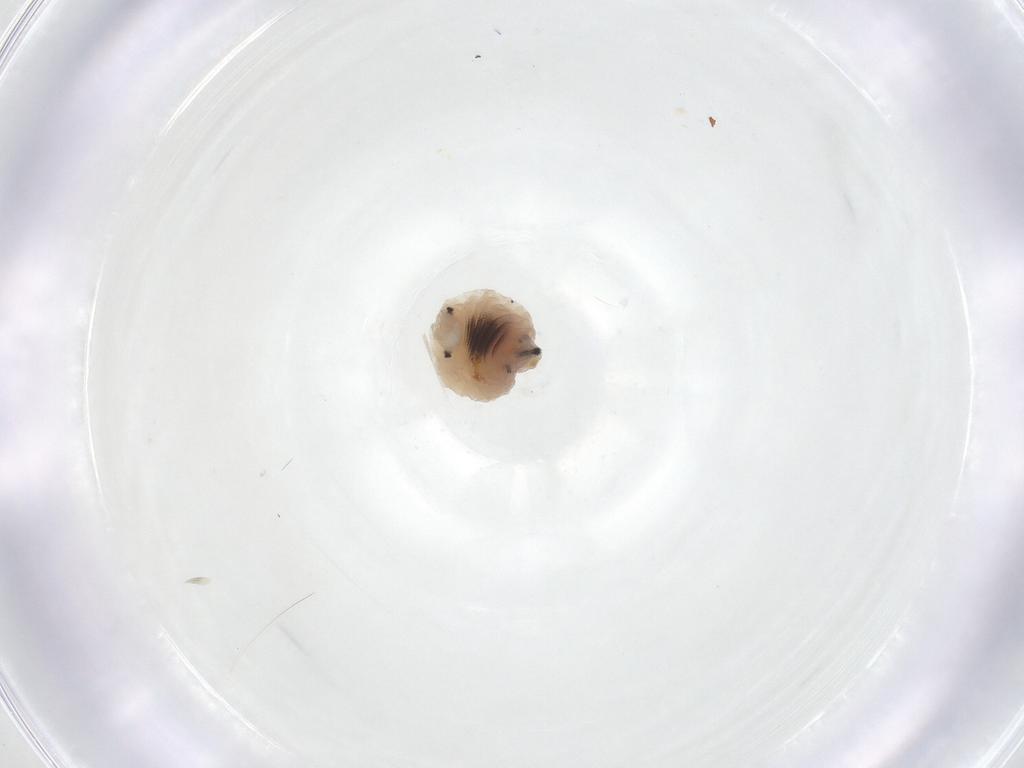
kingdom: Animalia
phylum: Arthropoda
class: Insecta
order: Diptera
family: Fergusoninidae
